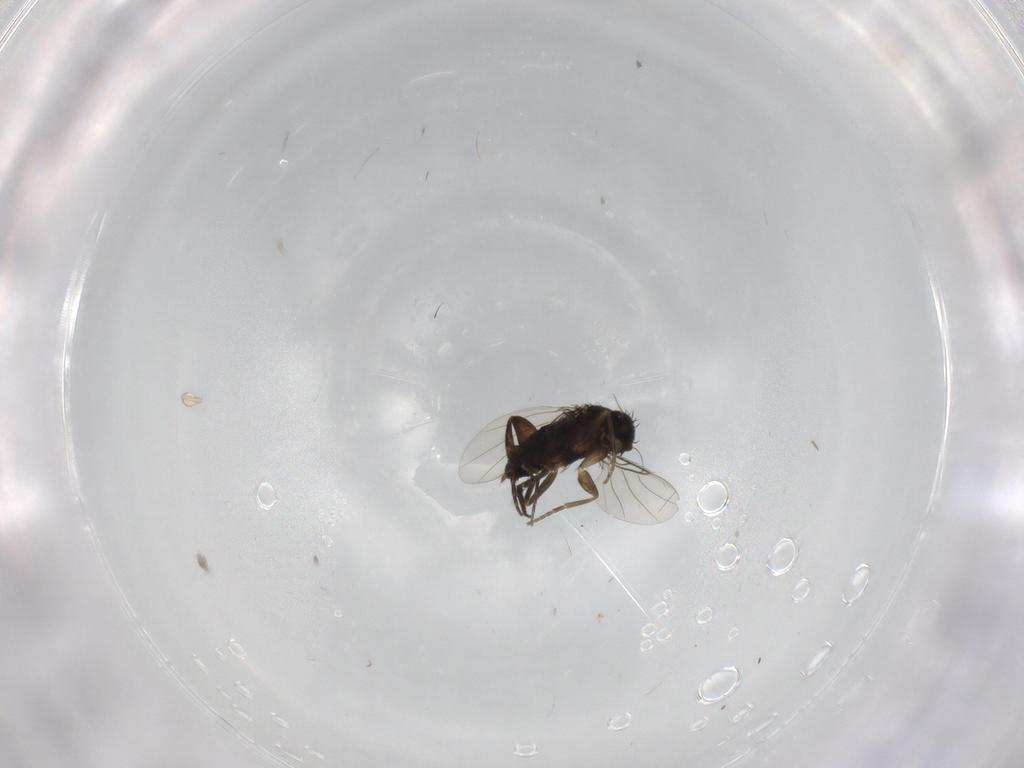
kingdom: Animalia
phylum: Arthropoda
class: Insecta
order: Diptera
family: Phoridae
